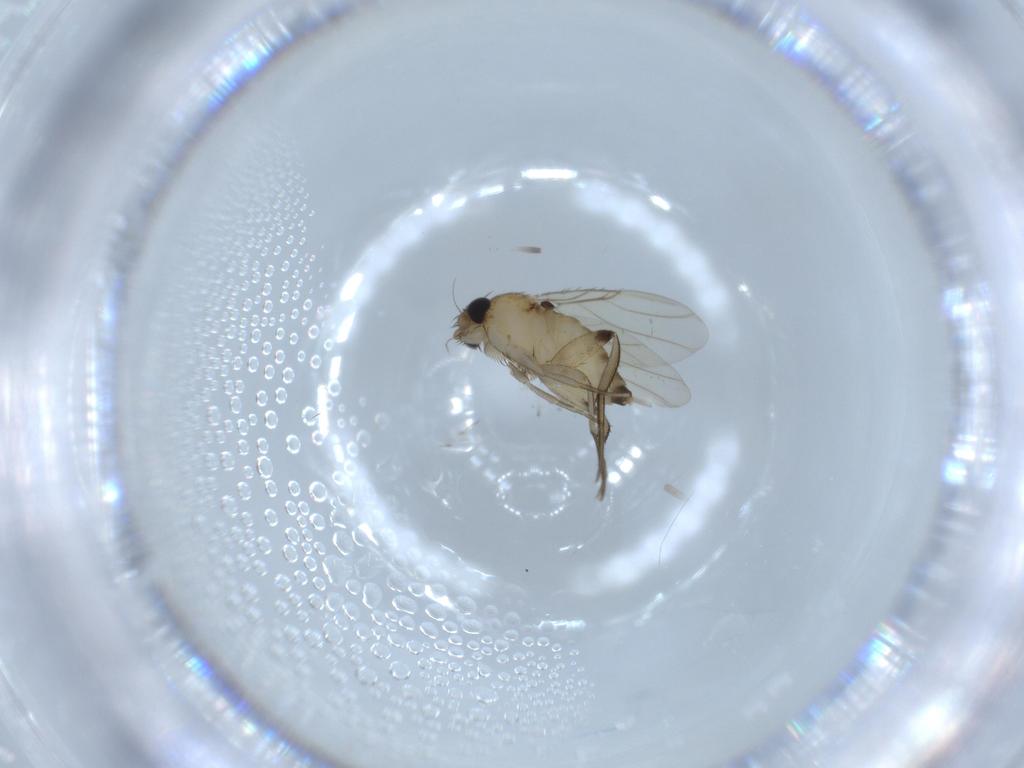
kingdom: Animalia
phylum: Arthropoda
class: Insecta
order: Diptera
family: Phoridae
